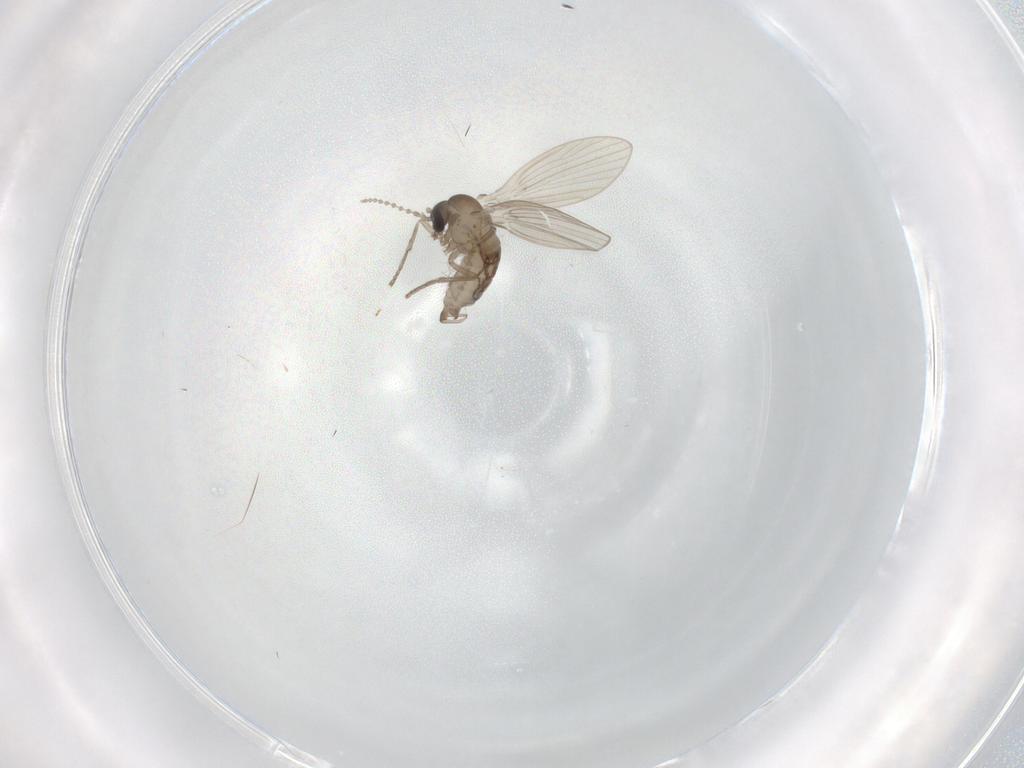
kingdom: Animalia
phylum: Arthropoda
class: Insecta
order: Diptera
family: Psychodidae
